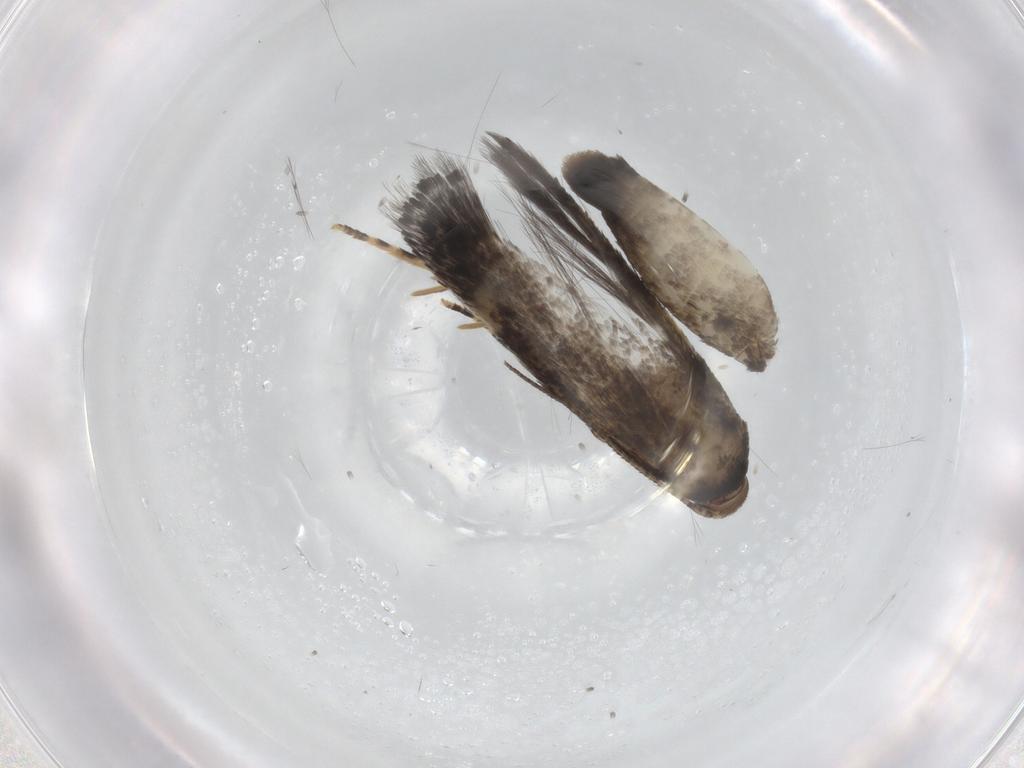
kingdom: Animalia
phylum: Arthropoda
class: Insecta
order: Lepidoptera
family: Elachistidae
